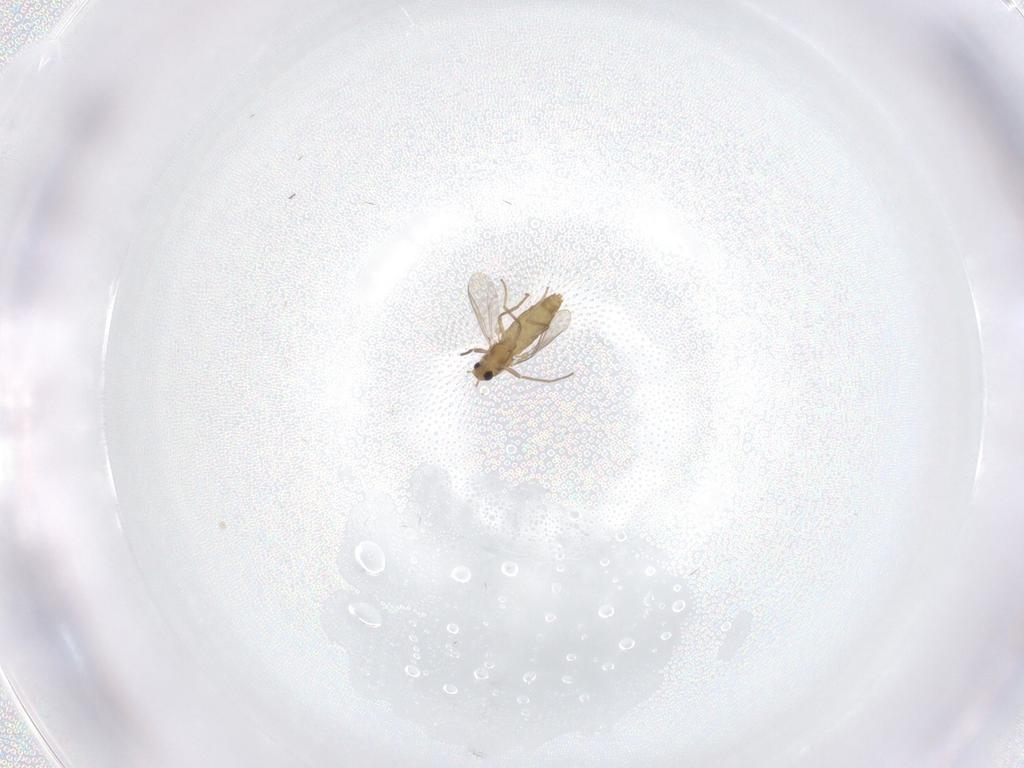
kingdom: Animalia
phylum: Arthropoda
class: Insecta
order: Diptera
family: Chironomidae
